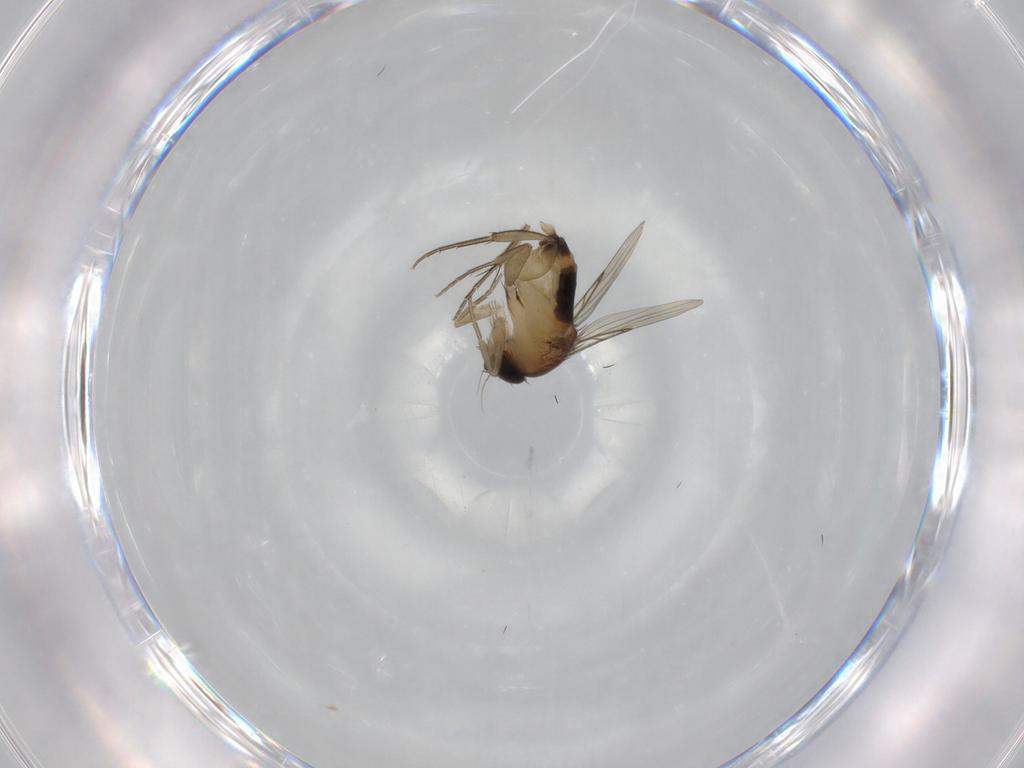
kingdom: Animalia
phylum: Arthropoda
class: Insecta
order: Diptera
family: Phoridae
